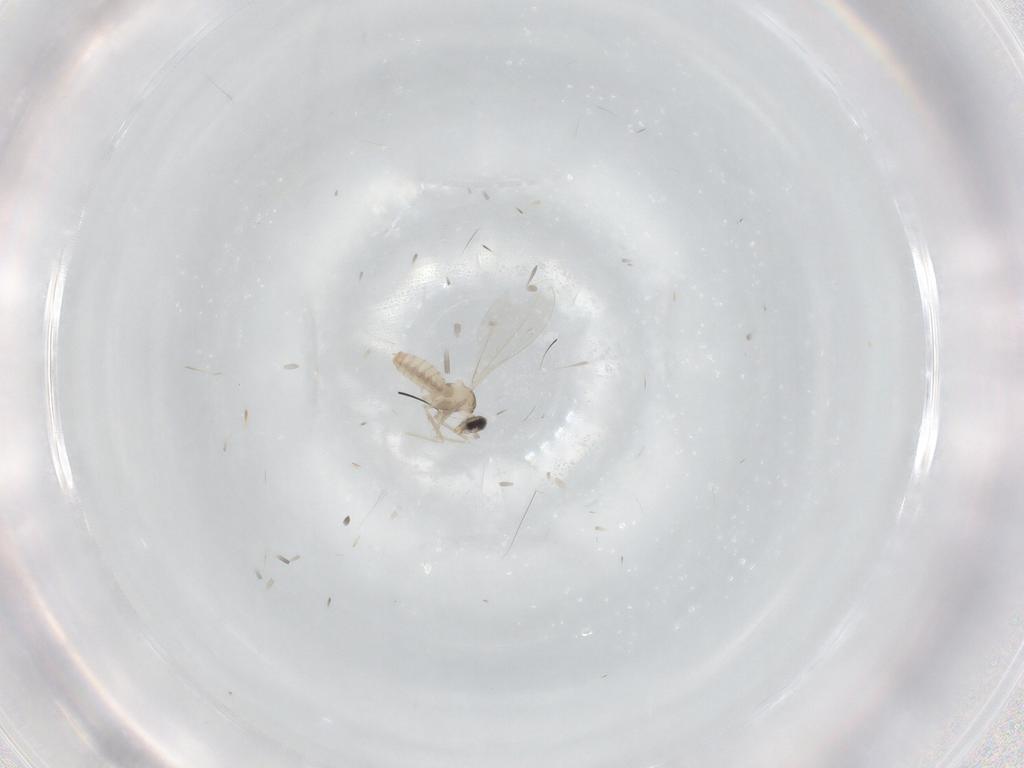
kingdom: Animalia
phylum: Arthropoda
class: Insecta
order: Diptera
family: Cecidomyiidae
